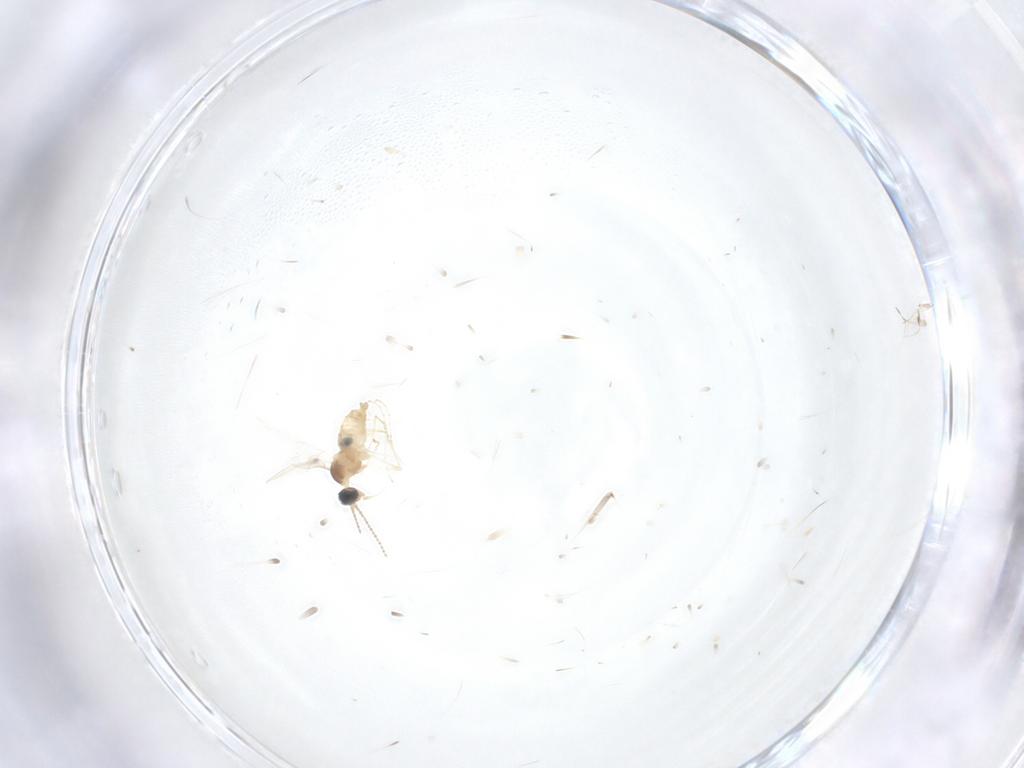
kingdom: Animalia
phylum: Arthropoda
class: Insecta
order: Diptera
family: Cecidomyiidae
